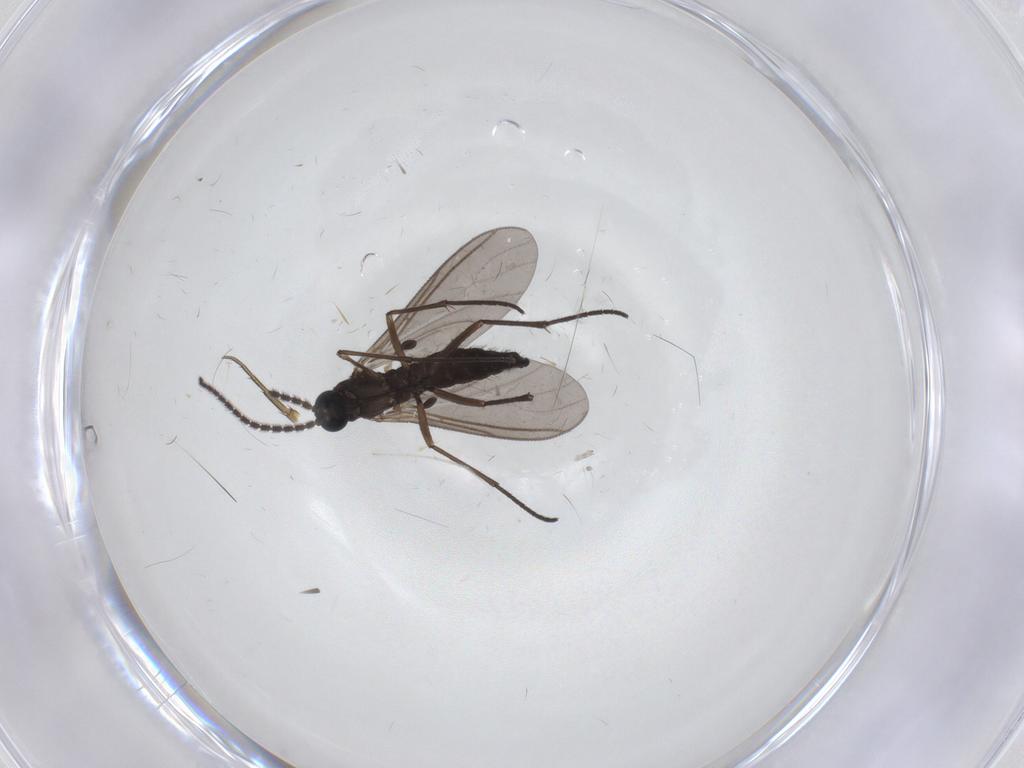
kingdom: Animalia
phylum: Arthropoda
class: Insecta
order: Diptera
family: Sciaridae
